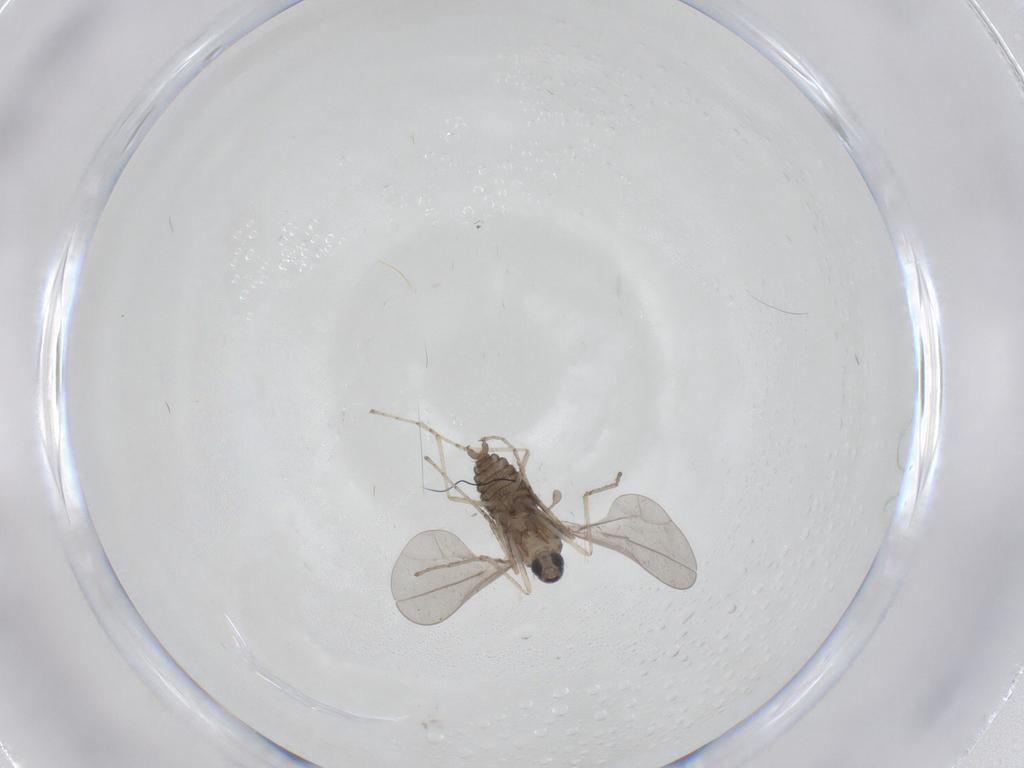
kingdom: Animalia
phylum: Arthropoda
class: Insecta
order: Diptera
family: Cecidomyiidae
